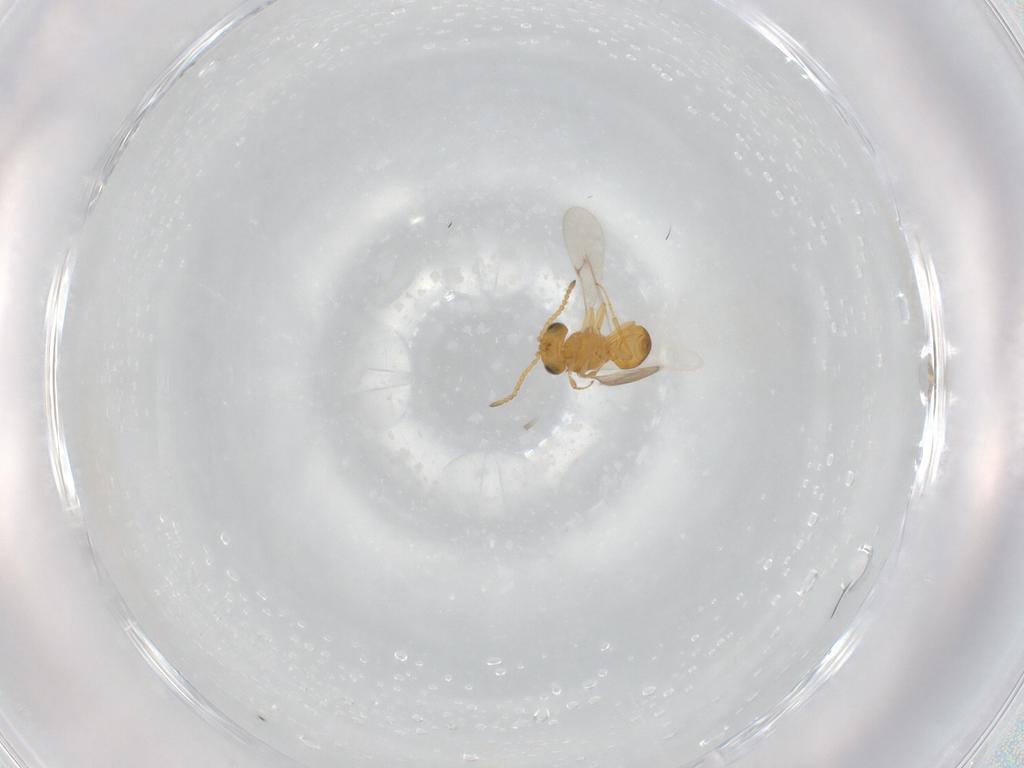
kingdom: Animalia
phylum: Arthropoda
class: Insecta
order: Hymenoptera
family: Scelionidae
